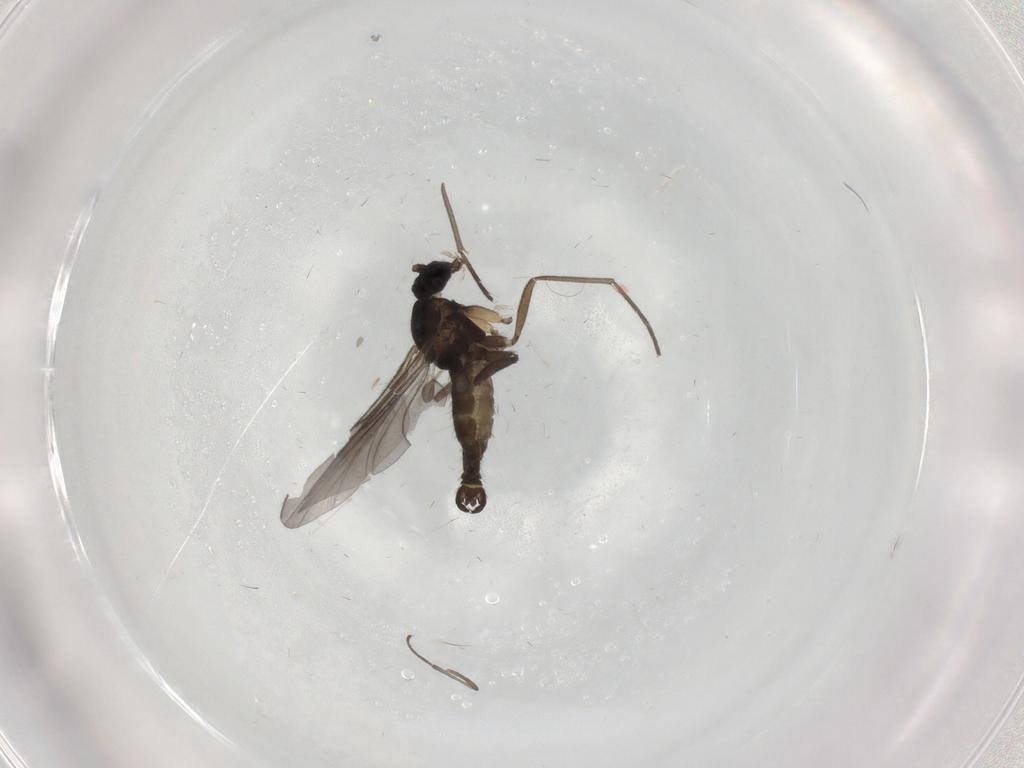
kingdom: Animalia
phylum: Arthropoda
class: Insecta
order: Diptera
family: Sciaridae
